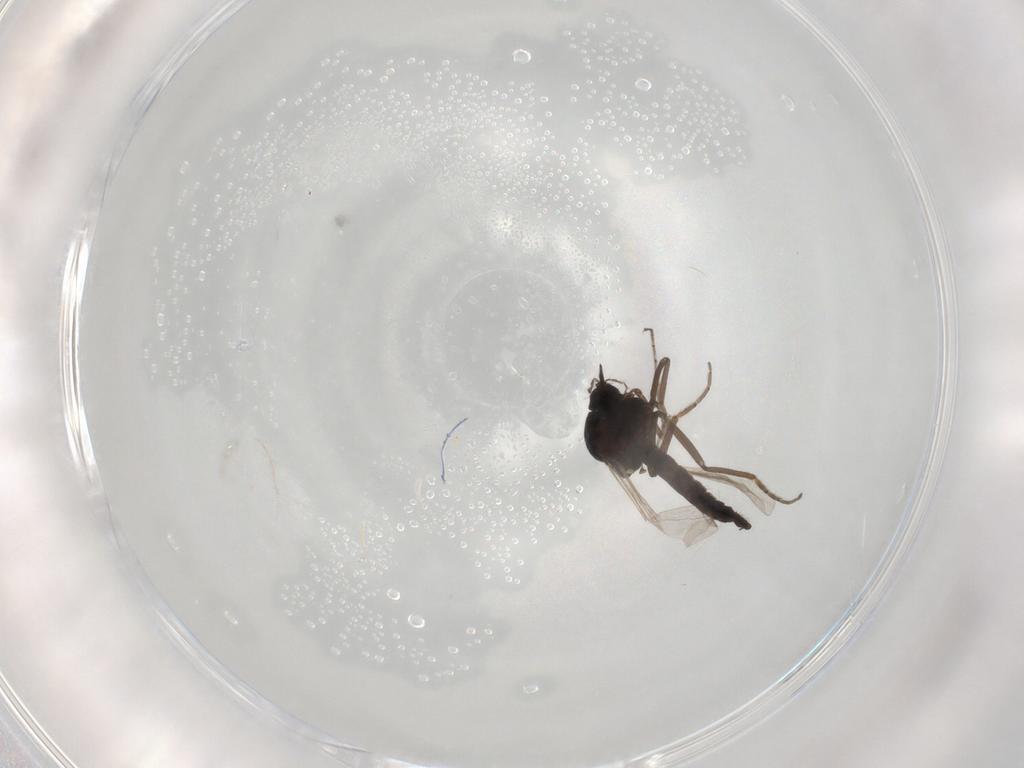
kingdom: Animalia
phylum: Arthropoda
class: Insecta
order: Diptera
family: Ceratopogonidae
